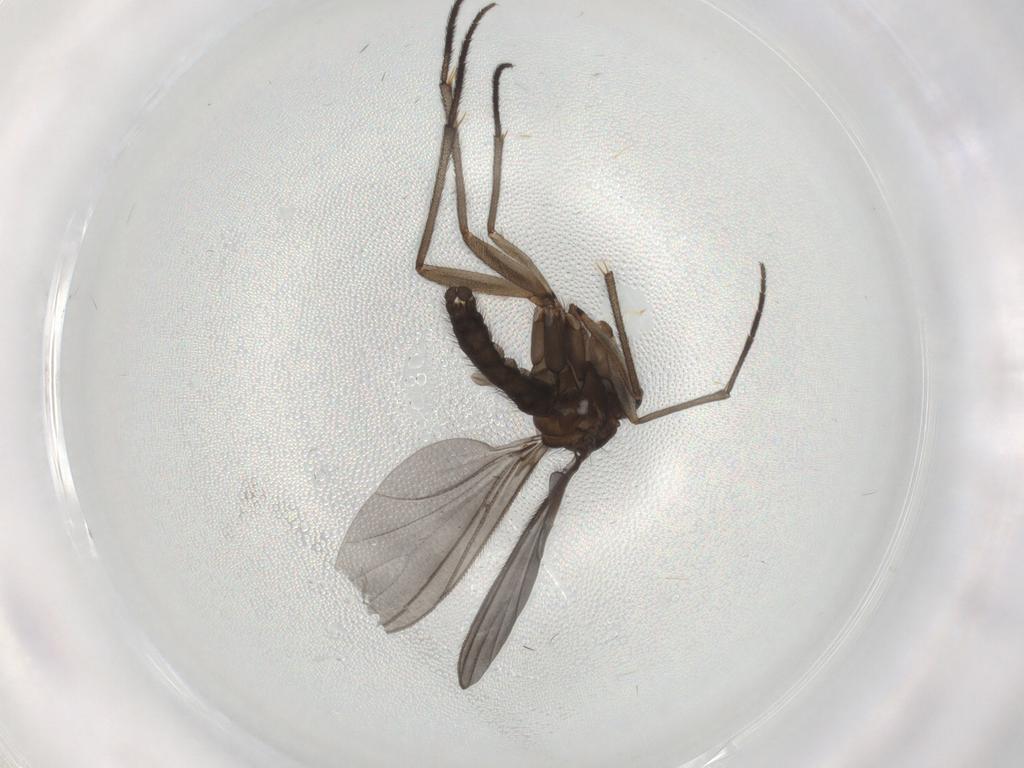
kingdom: Animalia
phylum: Arthropoda
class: Insecta
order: Diptera
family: Sciaridae
